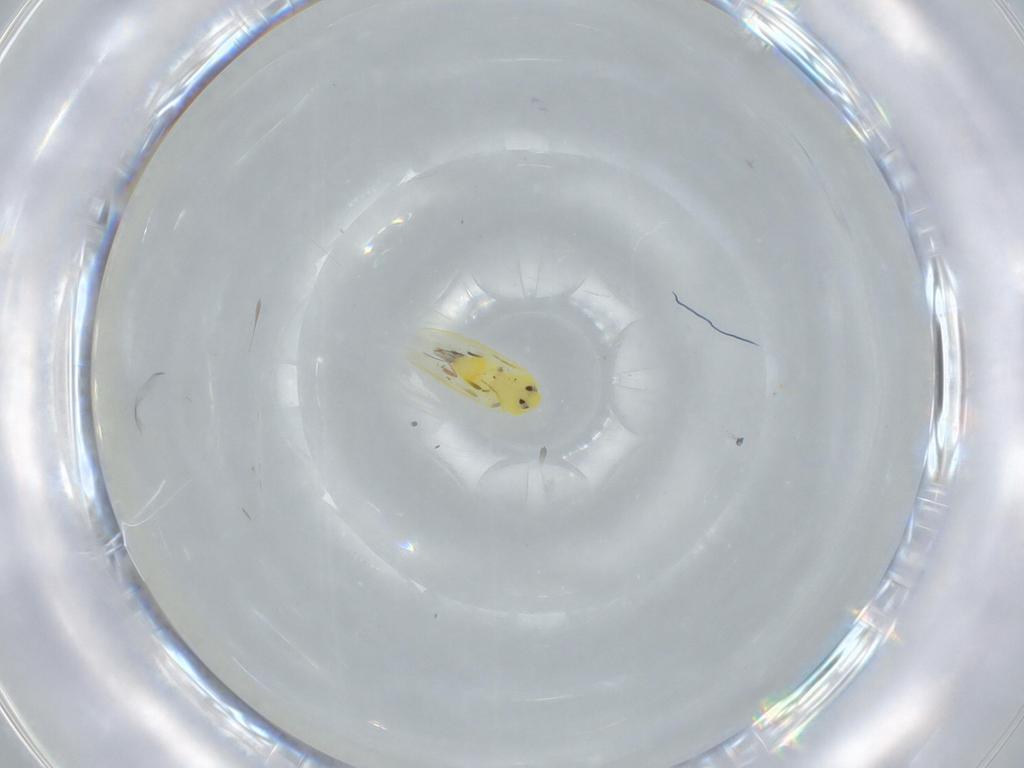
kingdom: Animalia
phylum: Arthropoda
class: Insecta
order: Hemiptera
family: Aleyrodidae
